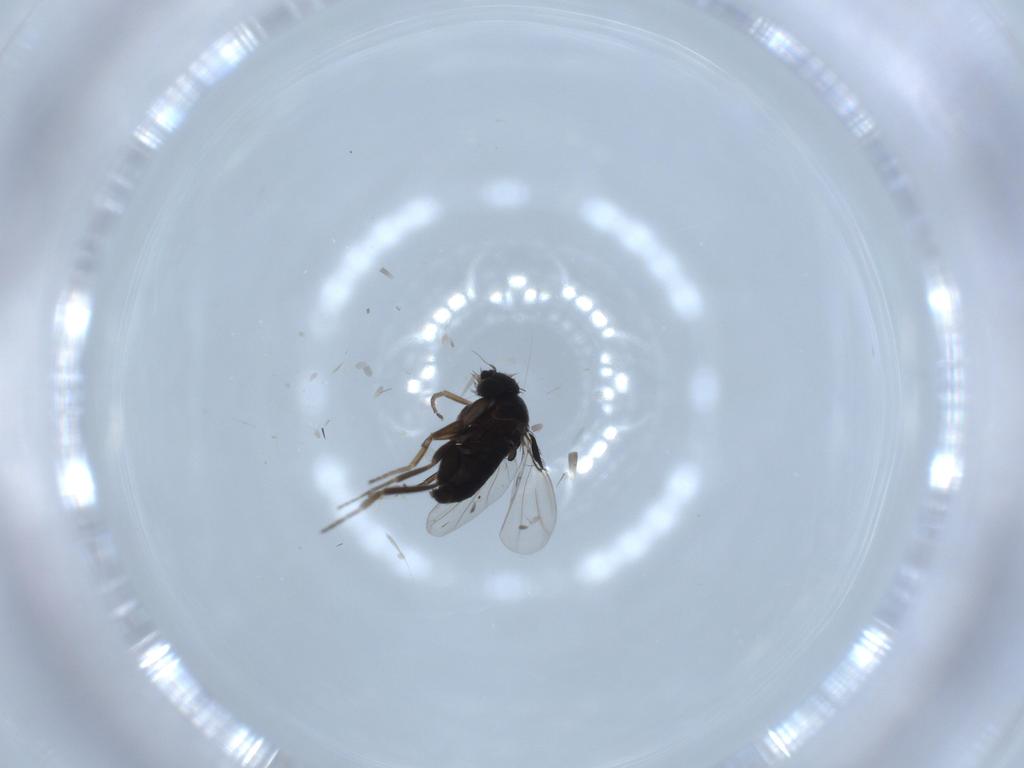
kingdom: Animalia
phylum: Arthropoda
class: Insecta
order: Diptera
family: Phoridae
